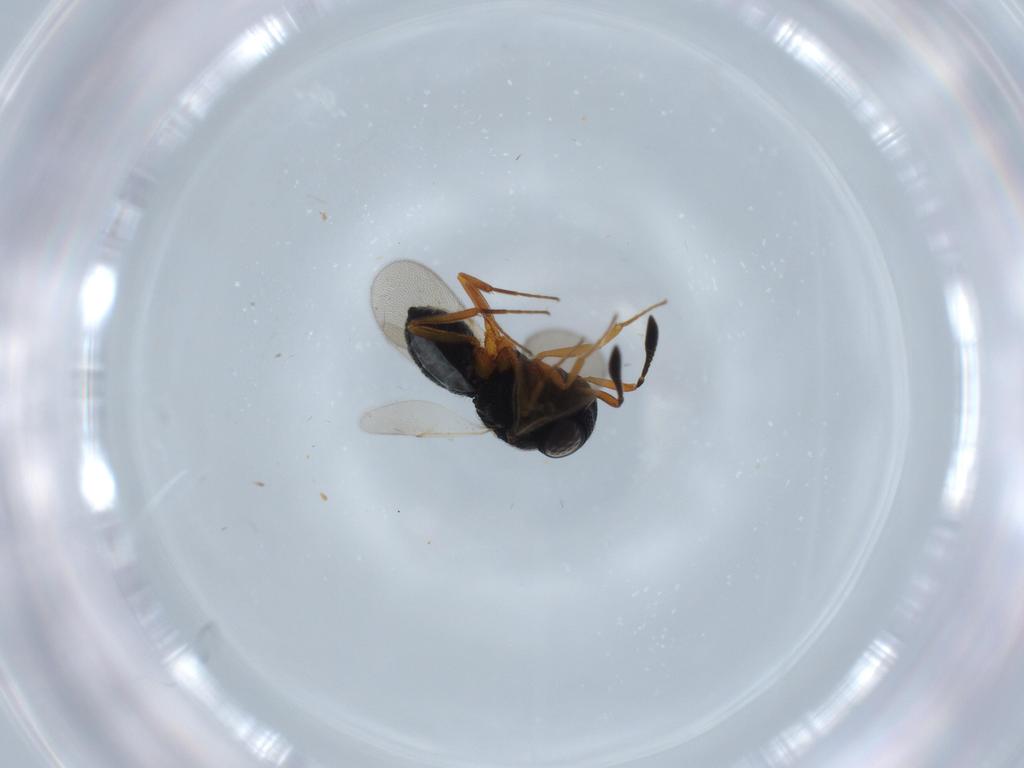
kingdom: Animalia
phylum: Arthropoda
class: Insecta
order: Hymenoptera
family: Scelionidae
